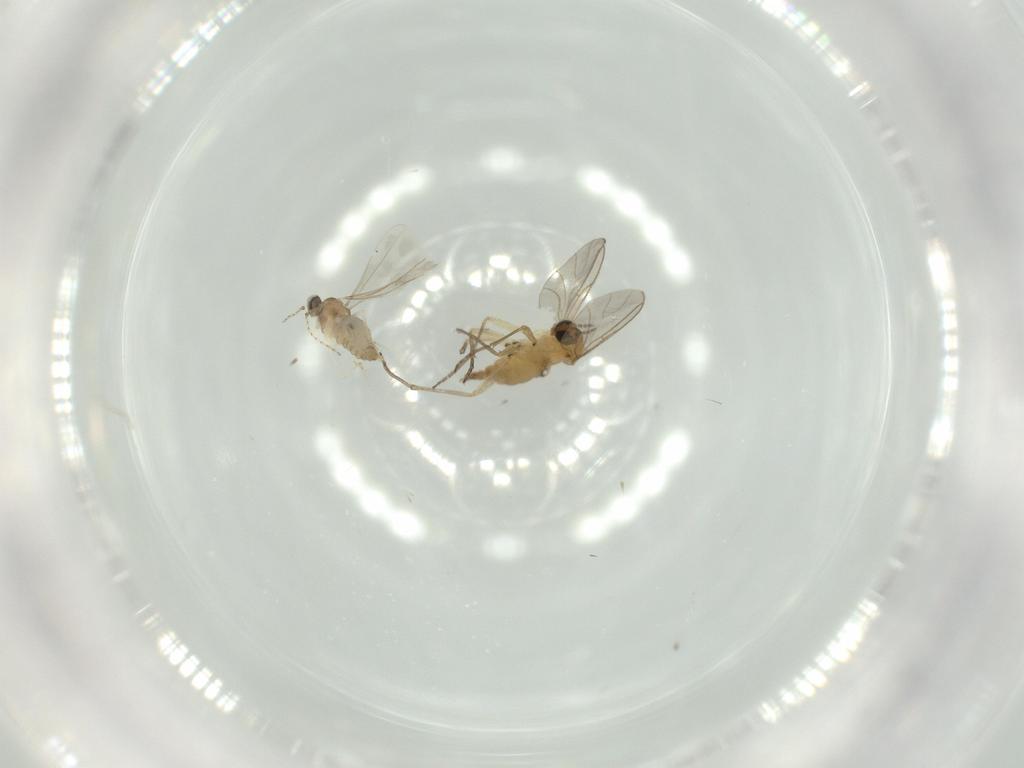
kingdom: Animalia
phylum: Arthropoda
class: Insecta
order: Diptera
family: Sciaridae
